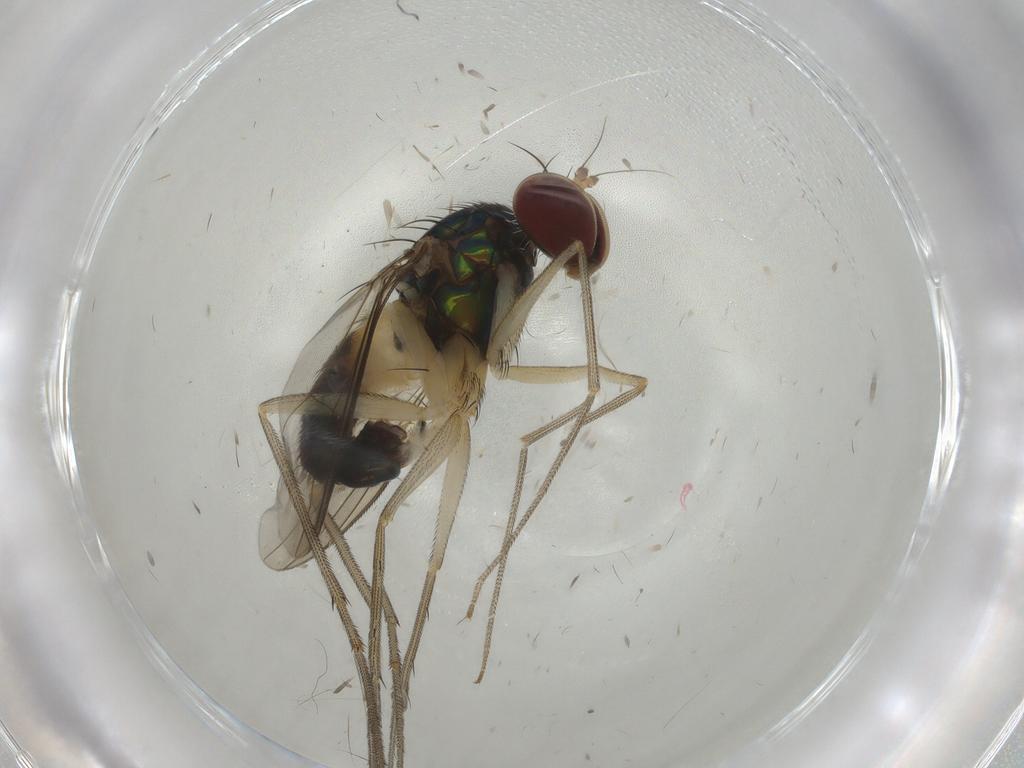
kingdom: Animalia
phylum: Arthropoda
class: Insecta
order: Diptera
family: Dolichopodidae
